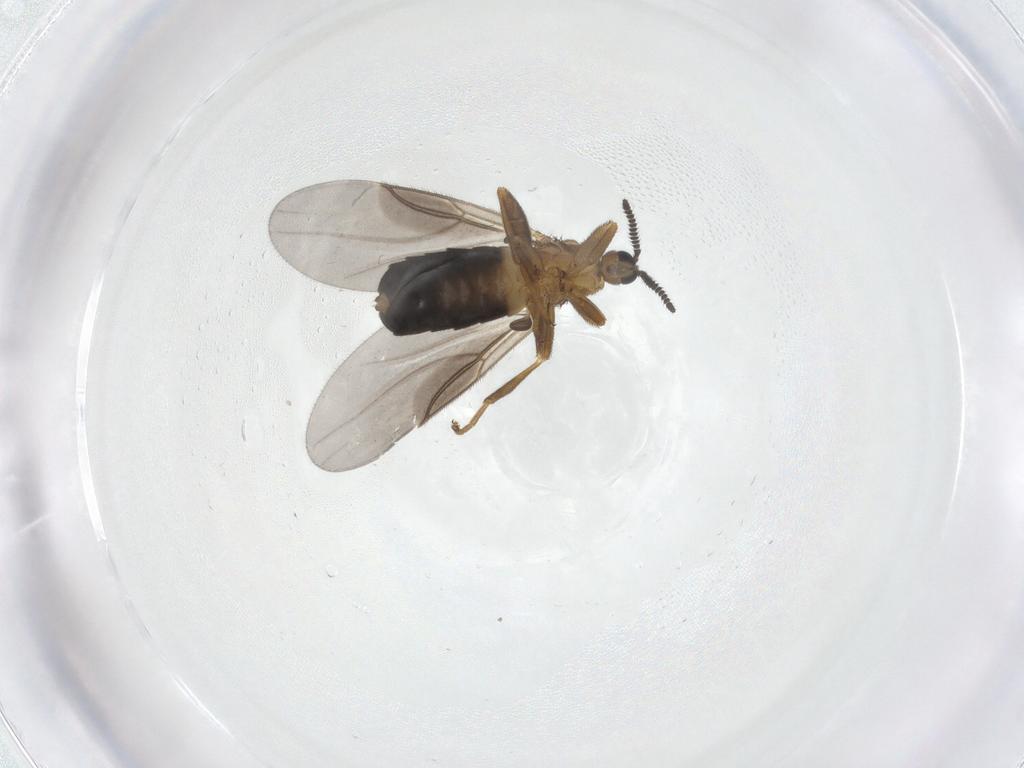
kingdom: Animalia
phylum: Arthropoda
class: Insecta
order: Diptera
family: Scatopsidae
